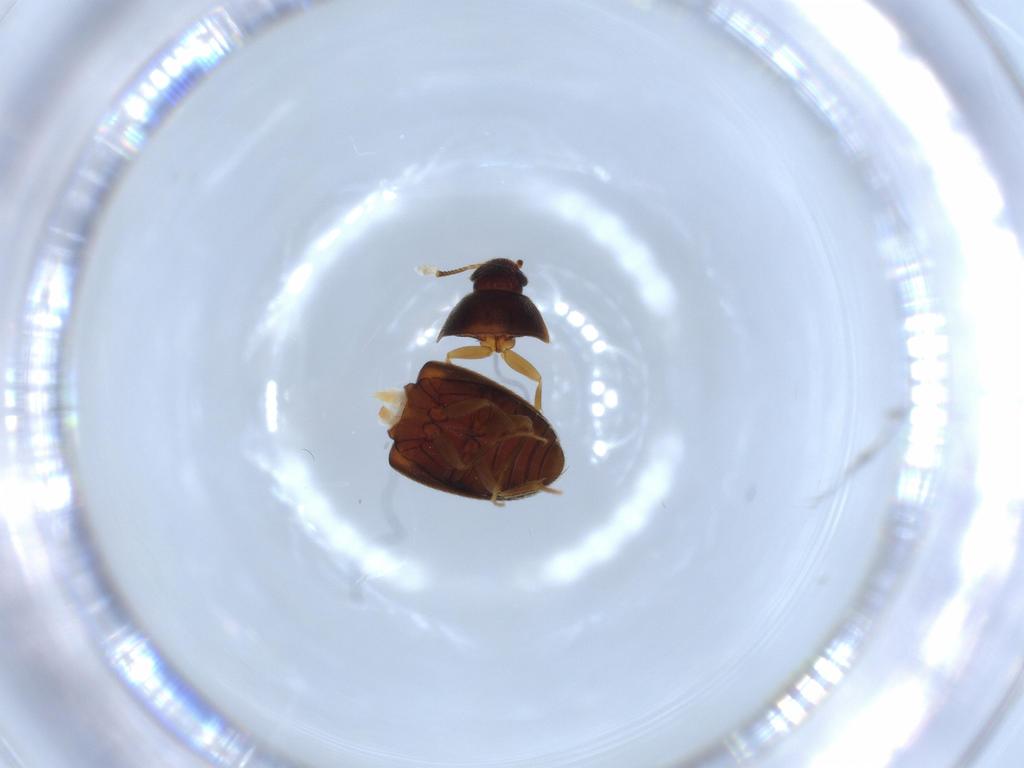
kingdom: Animalia
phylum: Arthropoda
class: Insecta
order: Coleoptera
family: Mycetophagidae
